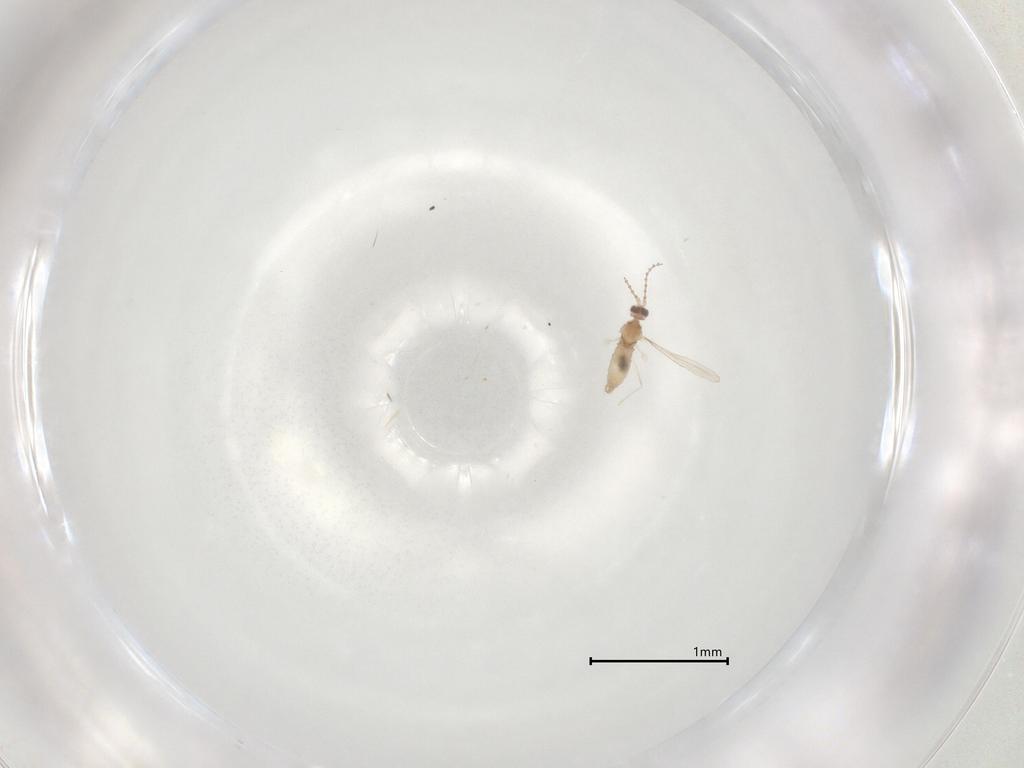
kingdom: Animalia
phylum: Arthropoda
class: Insecta
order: Diptera
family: Cecidomyiidae
